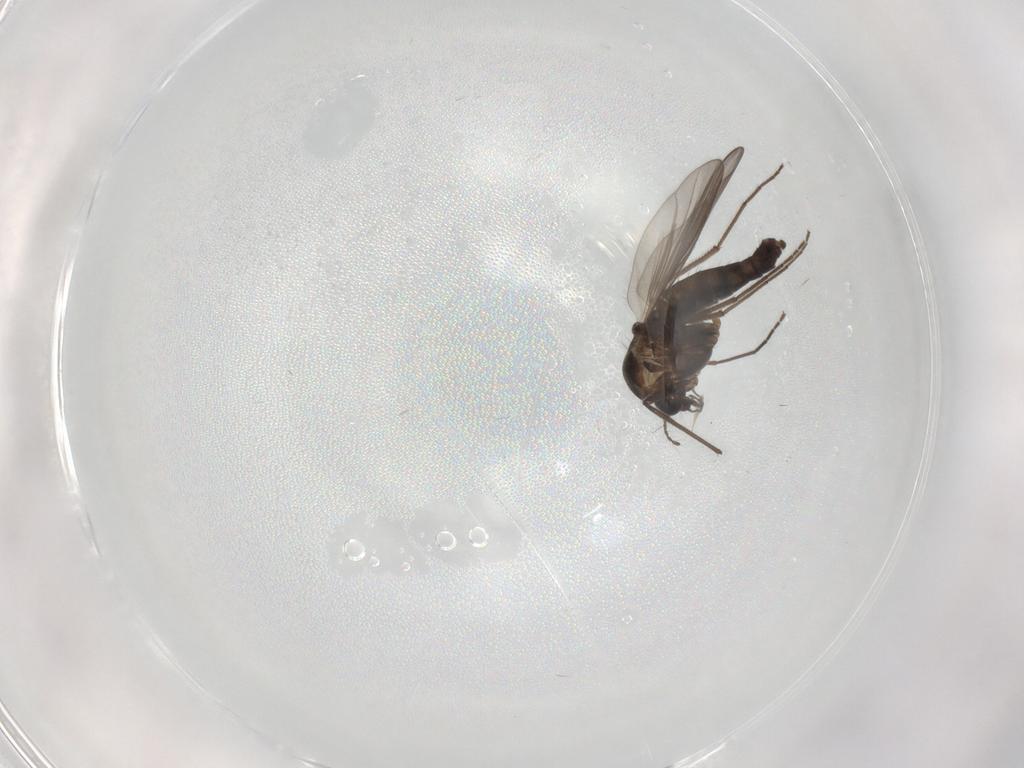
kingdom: Animalia
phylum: Arthropoda
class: Insecta
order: Diptera
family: Chironomidae
